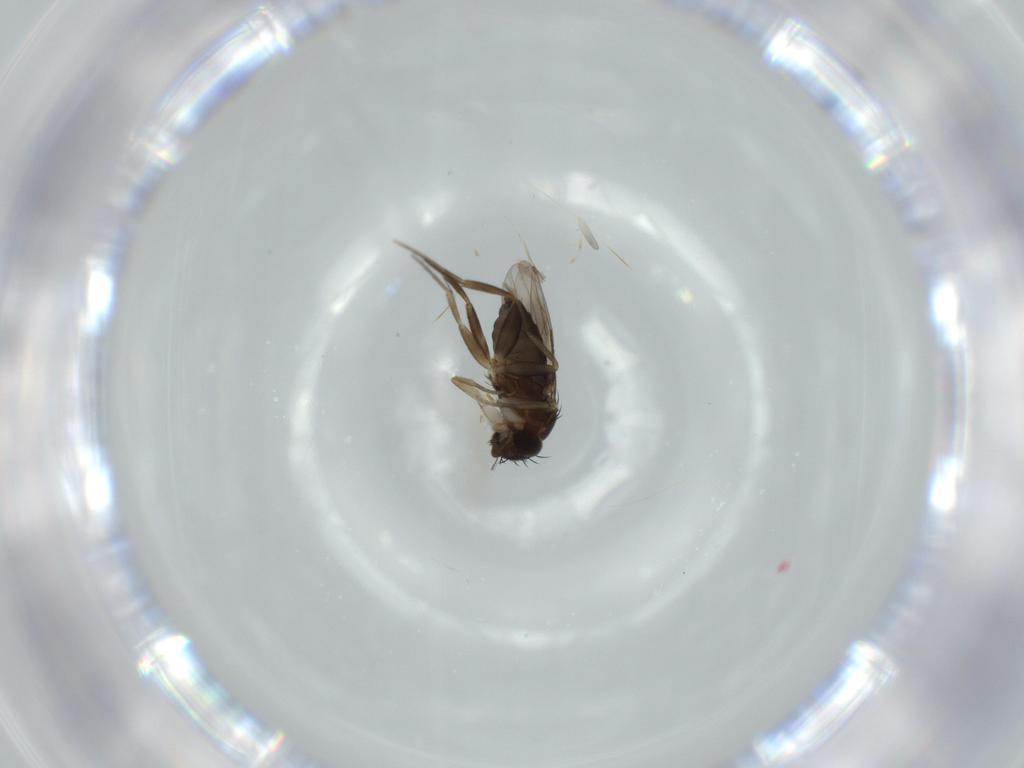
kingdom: Animalia
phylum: Arthropoda
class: Insecta
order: Diptera
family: Phoridae
